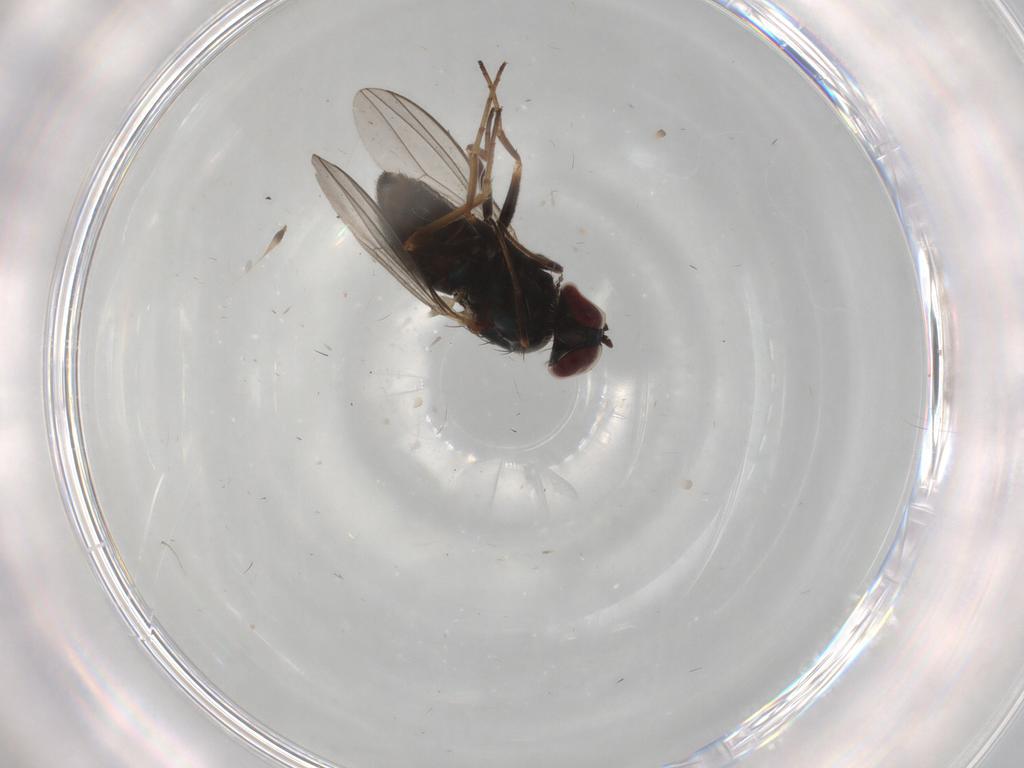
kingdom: Animalia
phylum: Arthropoda
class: Insecta
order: Diptera
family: Dolichopodidae
